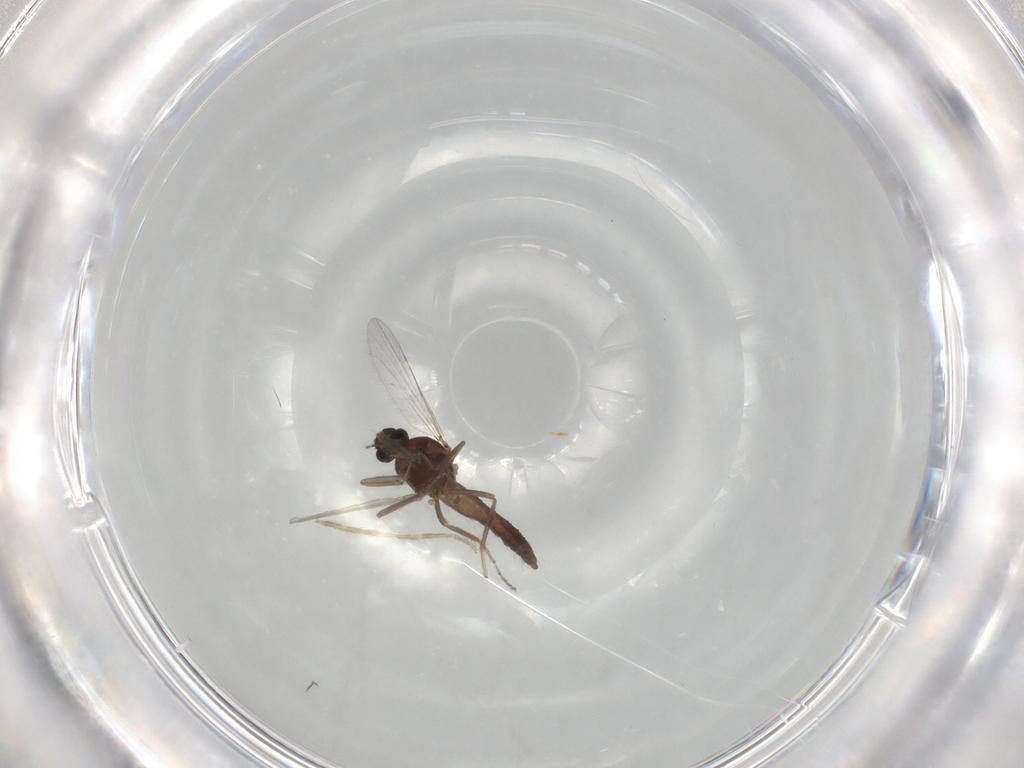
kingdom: Animalia
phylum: Arthropoda
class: Insecta
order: Diptera
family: Ceratopogonidae
